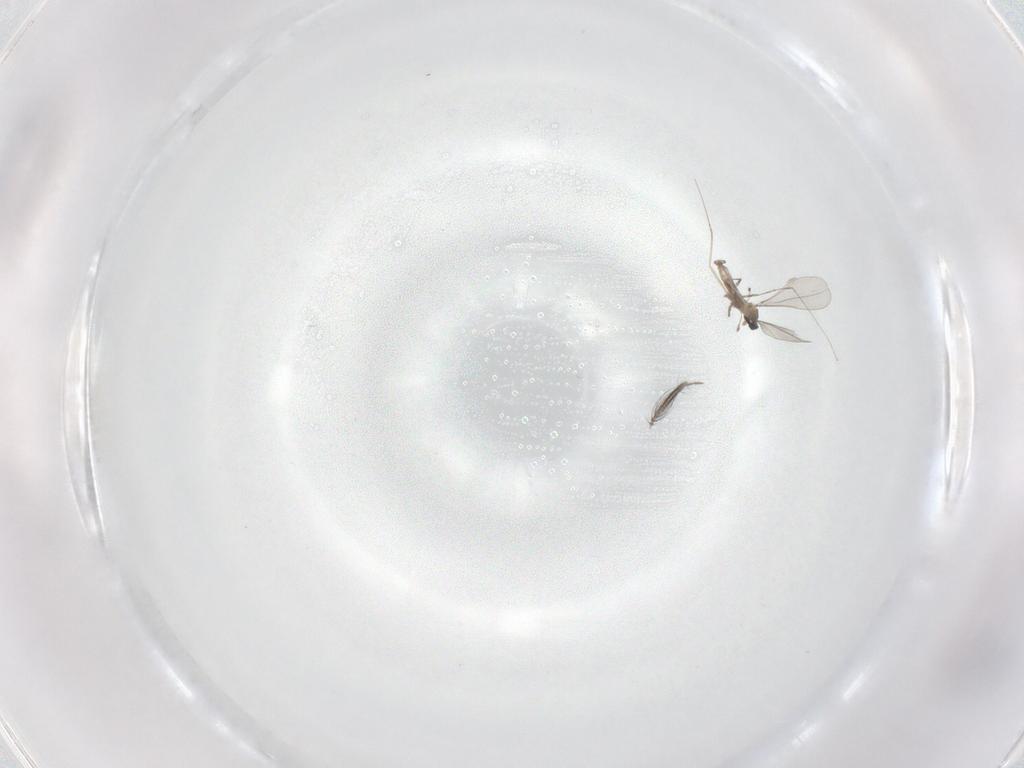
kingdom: Animalia
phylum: Arthropoda
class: Insecta
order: Diptera
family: Cecidomyiidae
